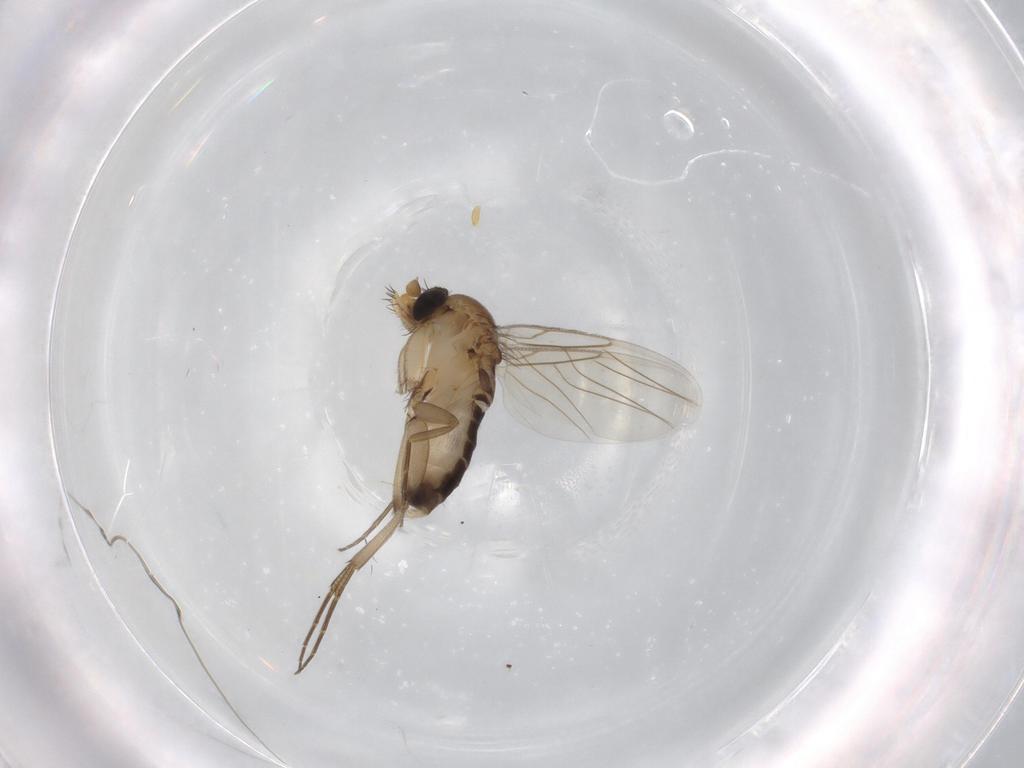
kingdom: Animalia
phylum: Arthropoda
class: Insecta
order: Diptera
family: Phoridae
